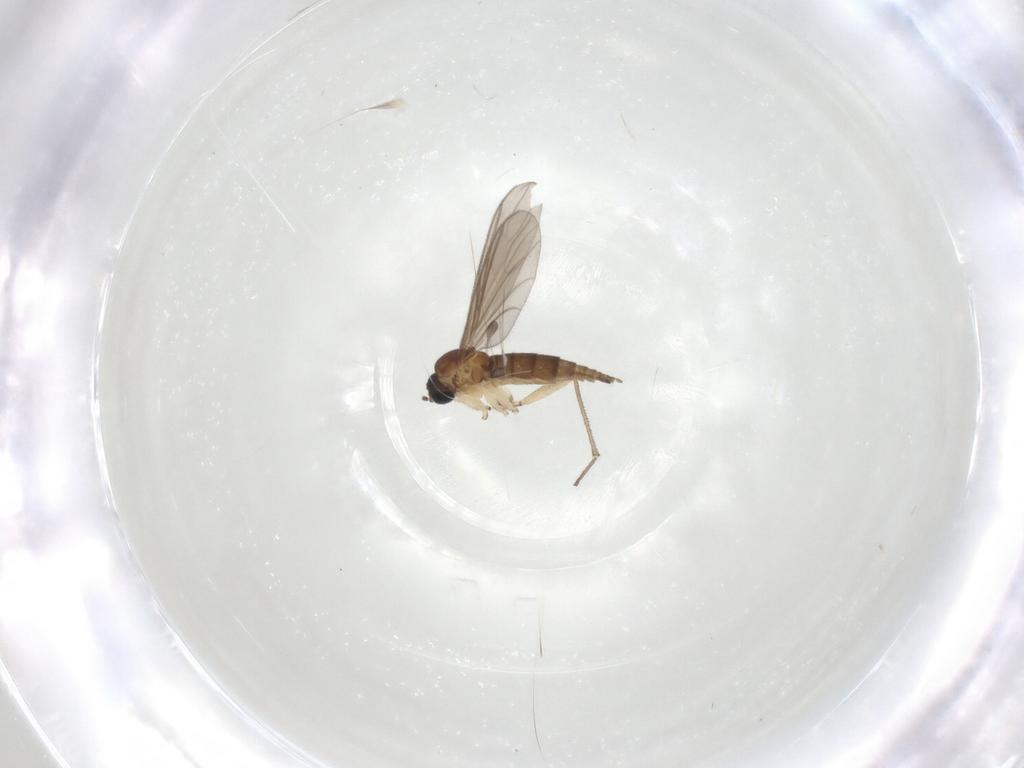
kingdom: Animalia
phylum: Arthropoda
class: Insecta
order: Diptera
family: Sciaridae
